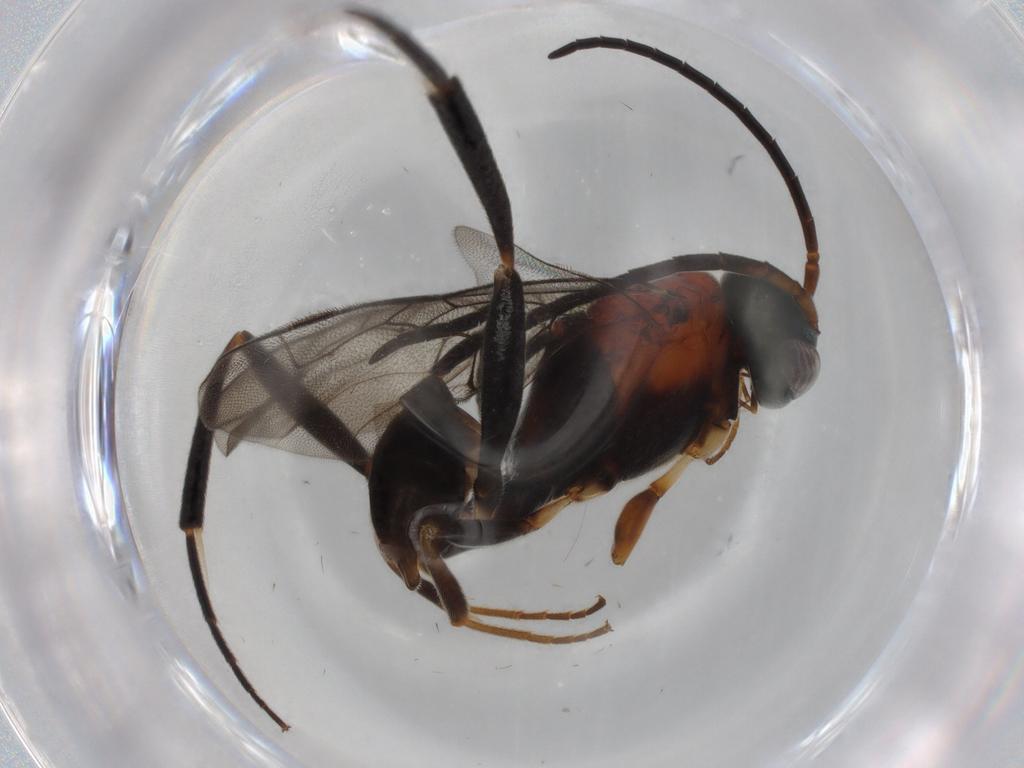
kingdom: Animalia
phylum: Arthropoda
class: Insecta
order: Hymenoptera
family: Evaniidae
